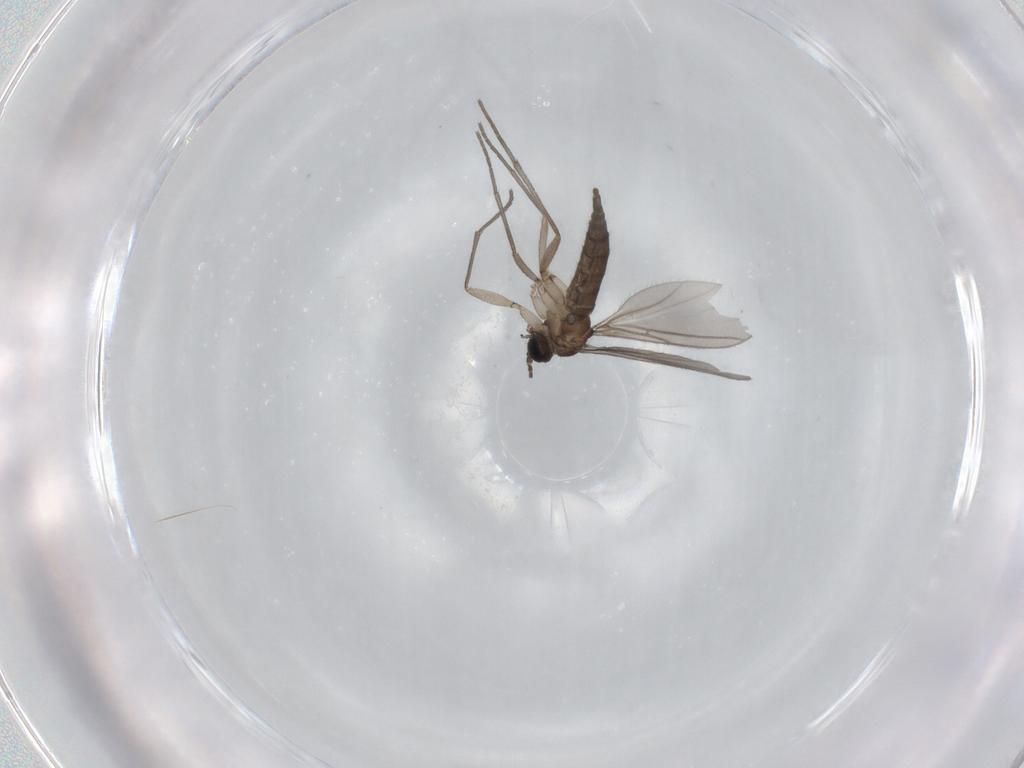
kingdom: Animalia
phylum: Arthropoda
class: Insecta
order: Diptera
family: Sciaridae
